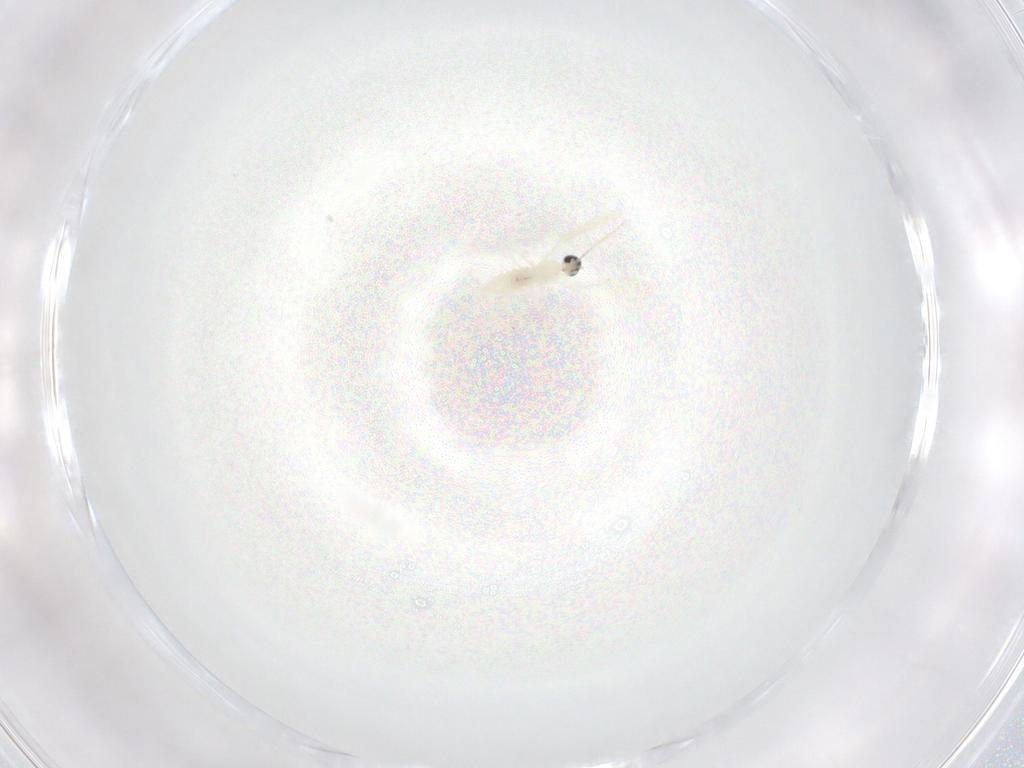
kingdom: Animalia
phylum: Arthropoda
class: Insecta
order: Diptera
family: Cecidomyiidae
